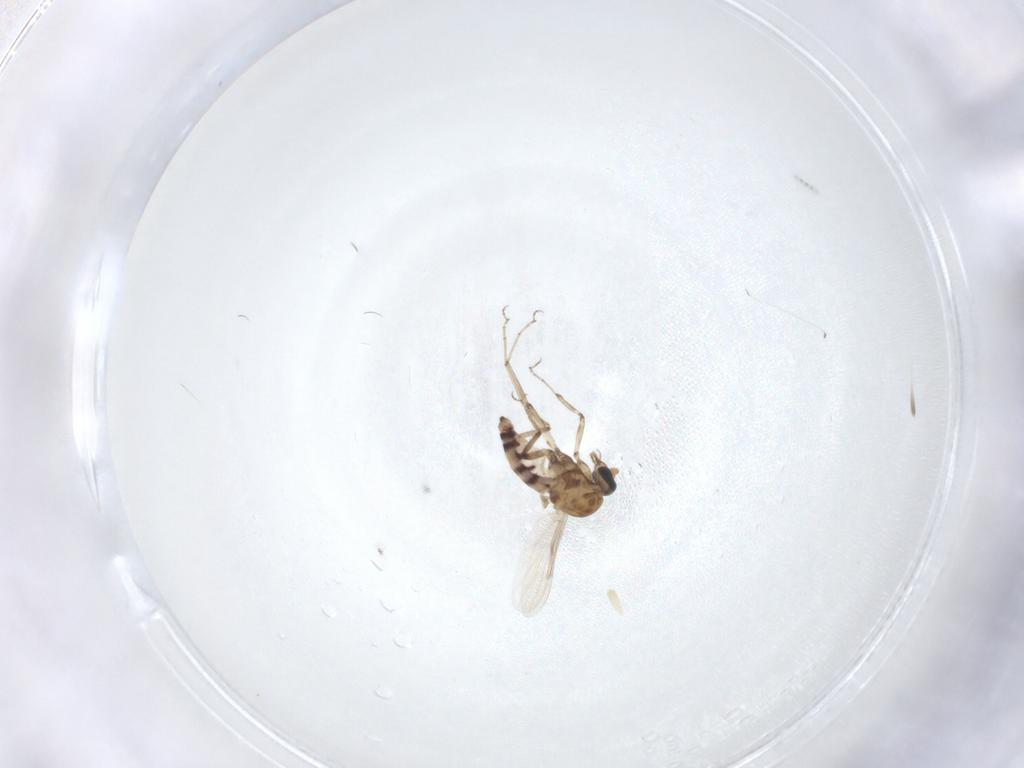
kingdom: Animalia
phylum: Arthropoda
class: Insecta
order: Diptera
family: Ceratopogonidae
